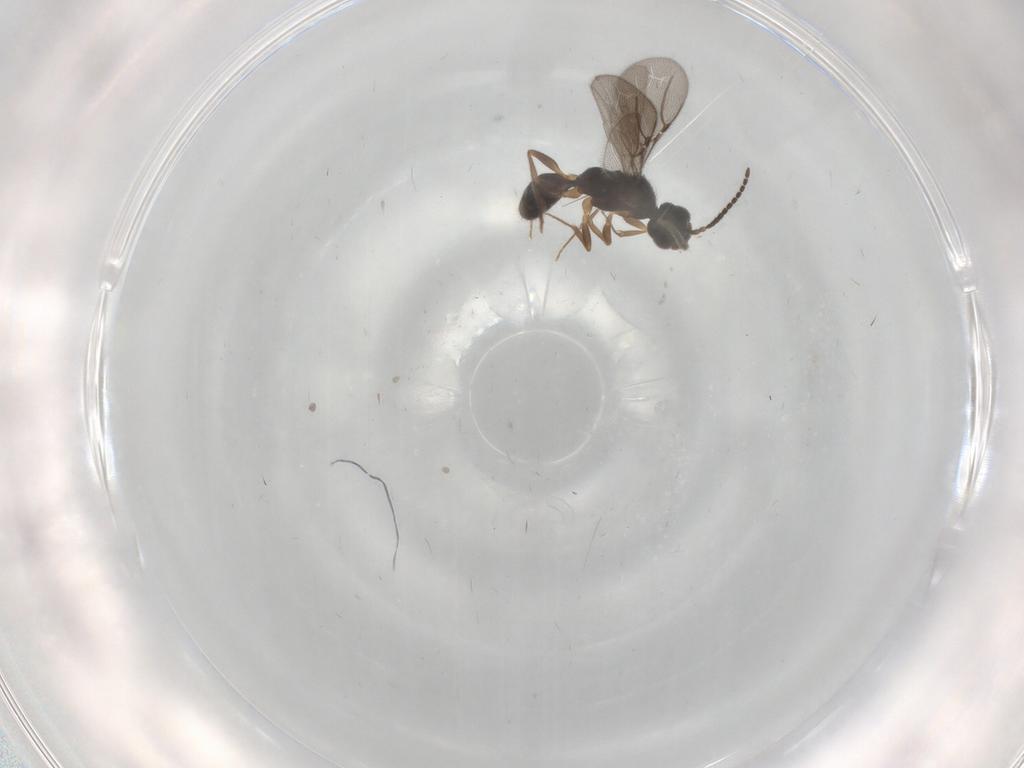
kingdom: Animalia
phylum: Arthropoda
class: Insecta
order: Hymenoptera
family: Bethylidae
